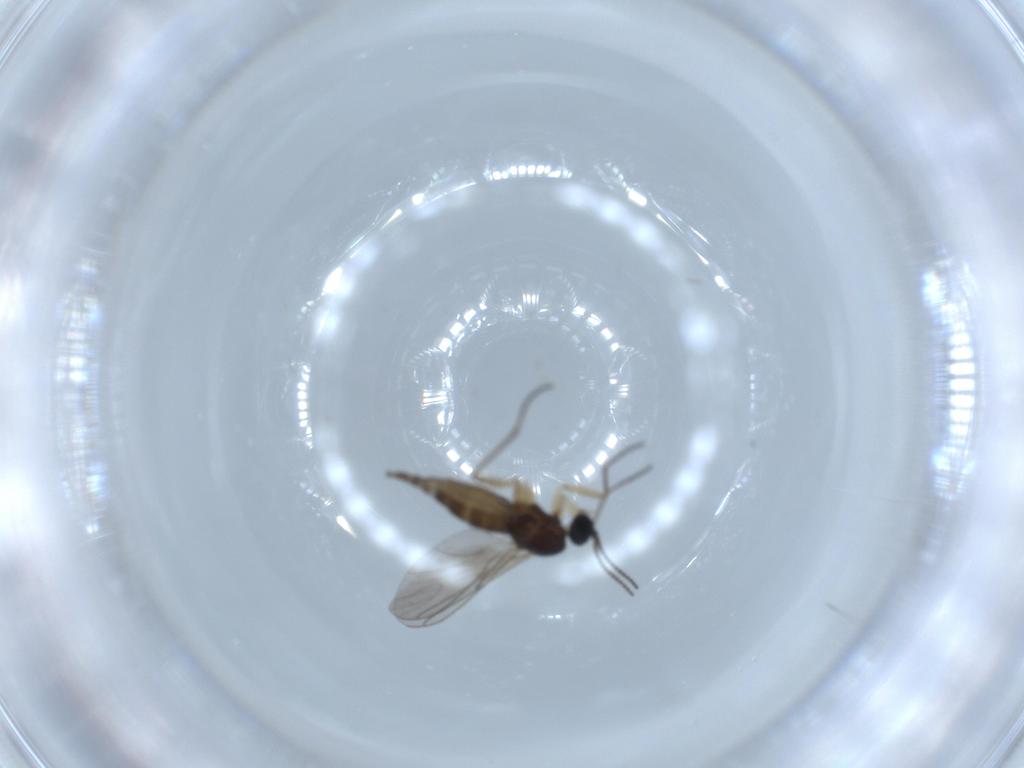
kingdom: Animalia
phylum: Arthropoda
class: Insecta
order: Diptera
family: Sciaridae
